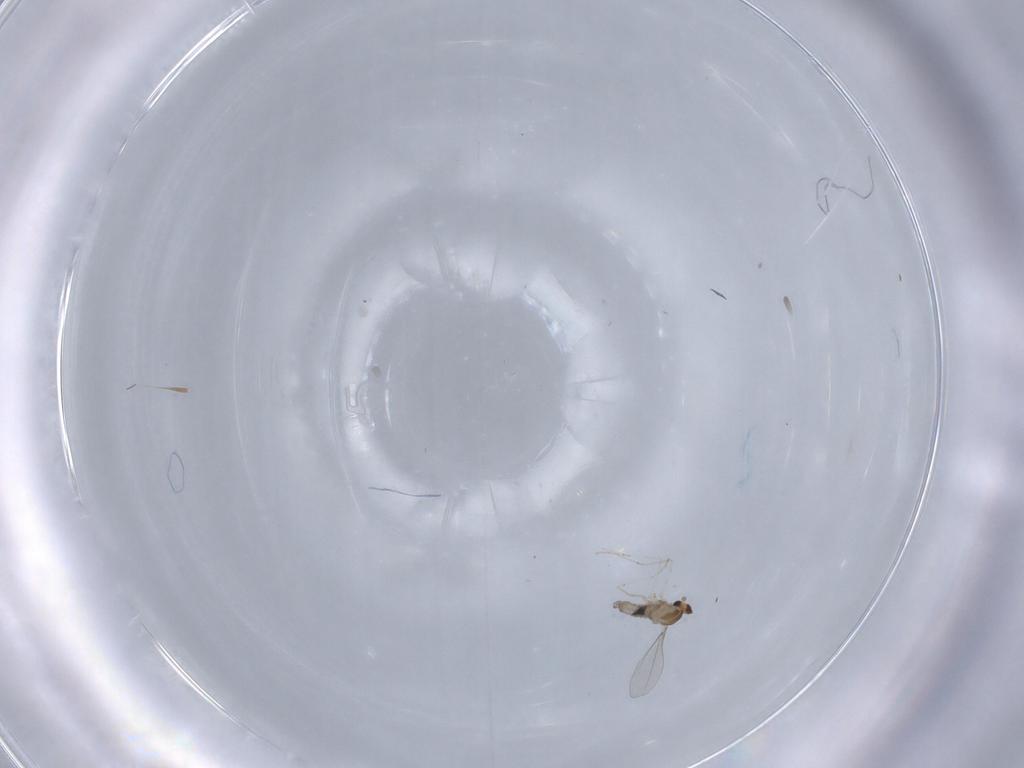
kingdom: Animalia
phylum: Arthropoda
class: Insecta
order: Diptera
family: Cecidomyiidae
